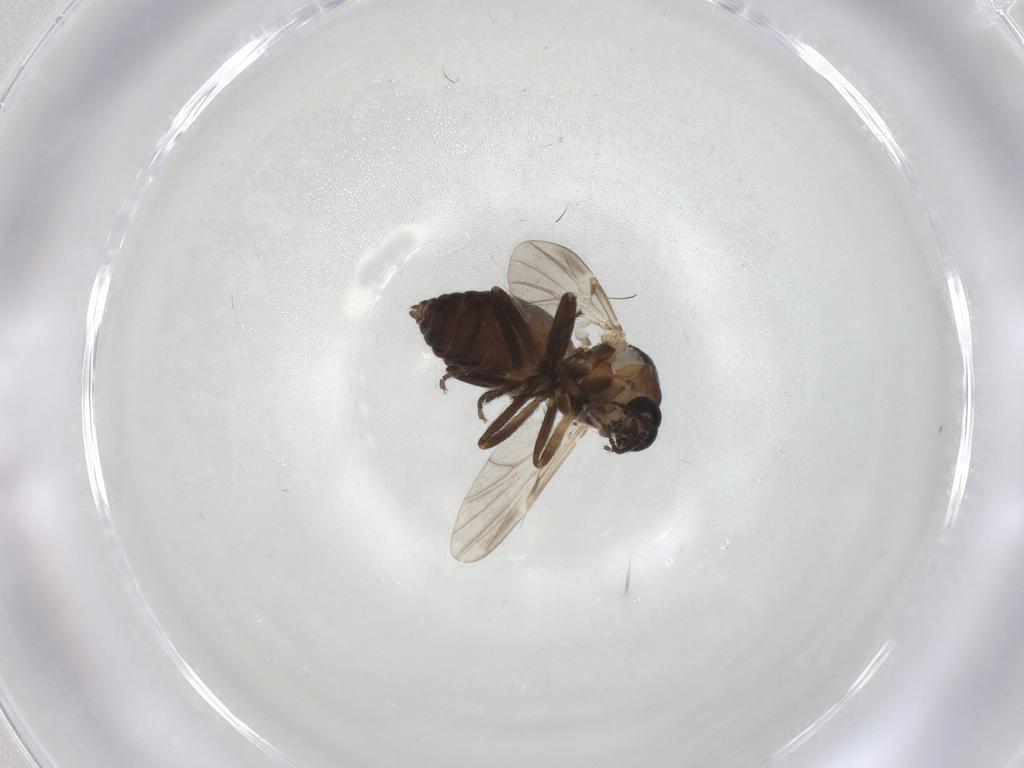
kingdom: Animalia
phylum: Arthropoda
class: Insecta
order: Diptera
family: Ceratopogonidae
